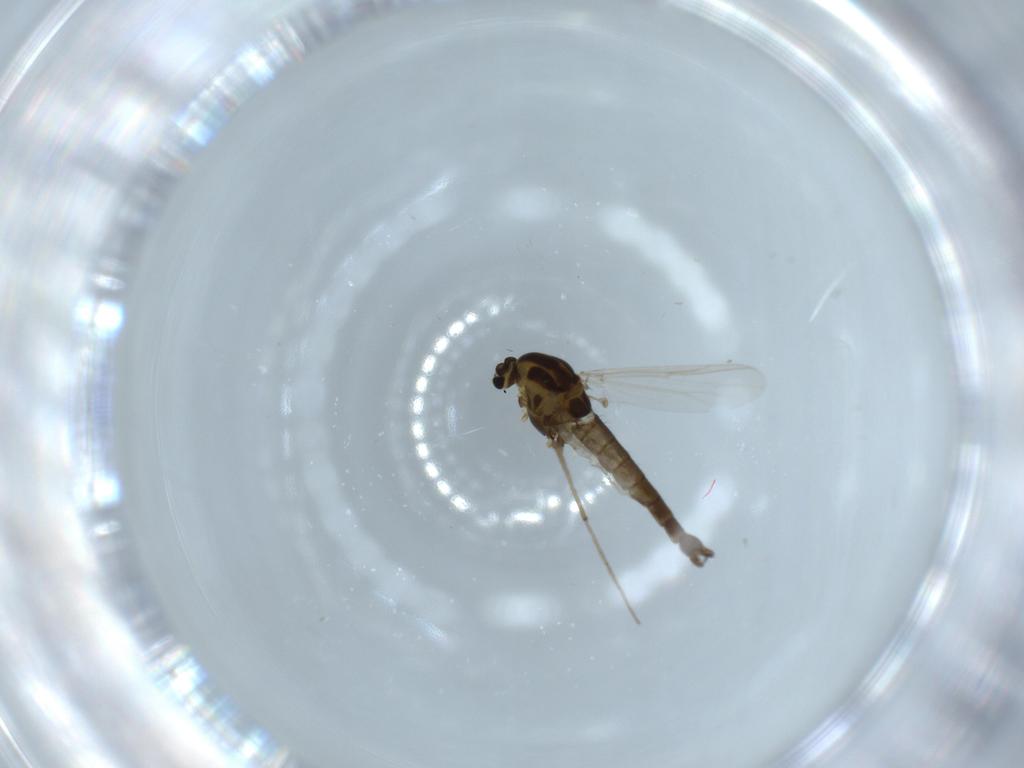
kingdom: Animalia
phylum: Arthropoda
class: Insecta
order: Diptera
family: Chironomidae
